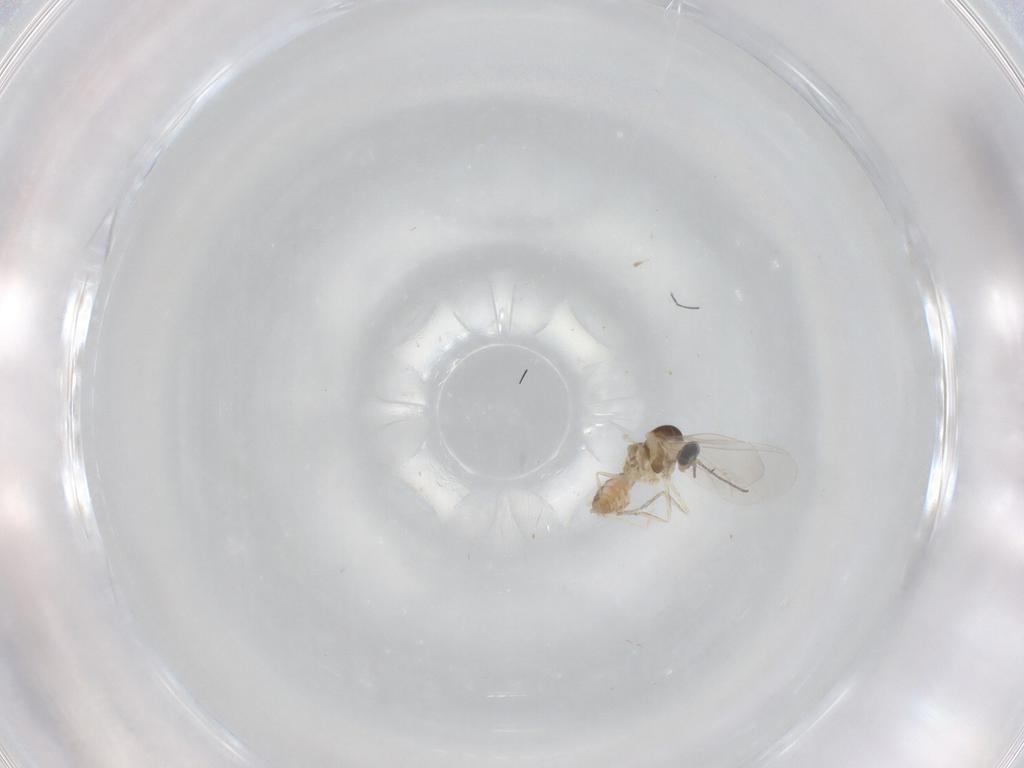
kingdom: Animalia
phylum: Arthropoda
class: Insecta
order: Diptera
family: Cecidomyiidae
